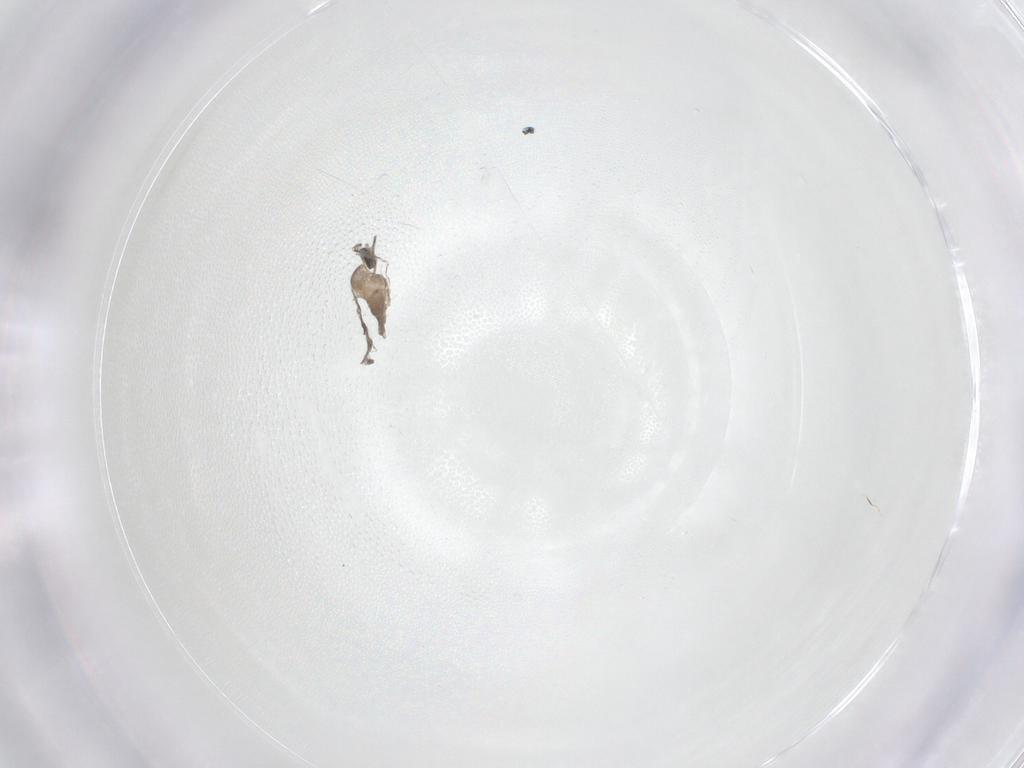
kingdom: Animalia
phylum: Arthropoda
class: Insecta
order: Diptera
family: Cecidomyiidae
